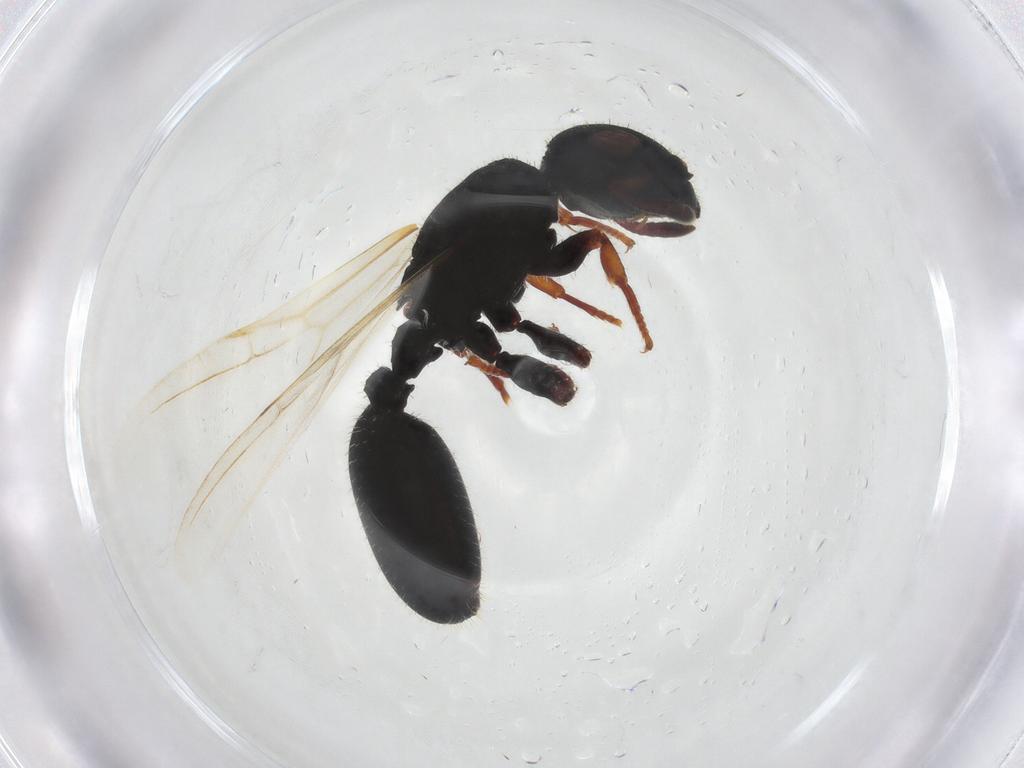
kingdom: Animalia
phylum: Arthropoda
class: Insecta
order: Hymenoptera
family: Formicidae
